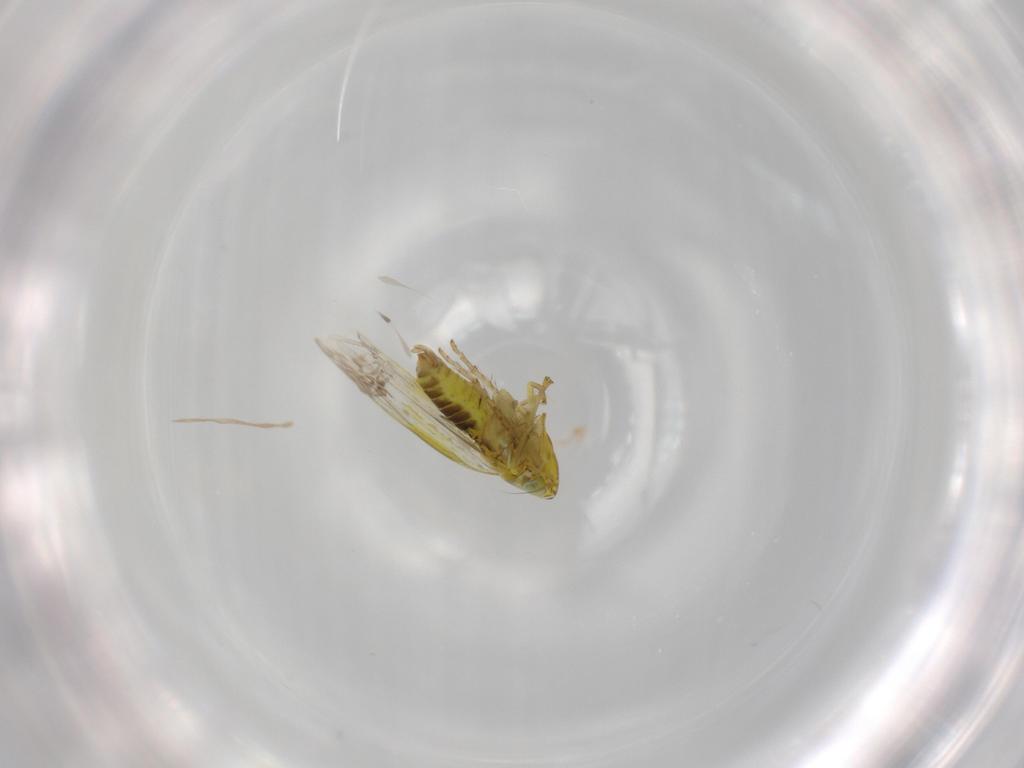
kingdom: Animalia
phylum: Arthropoda
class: Insecta
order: Hemiptera
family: Cicadellidae
